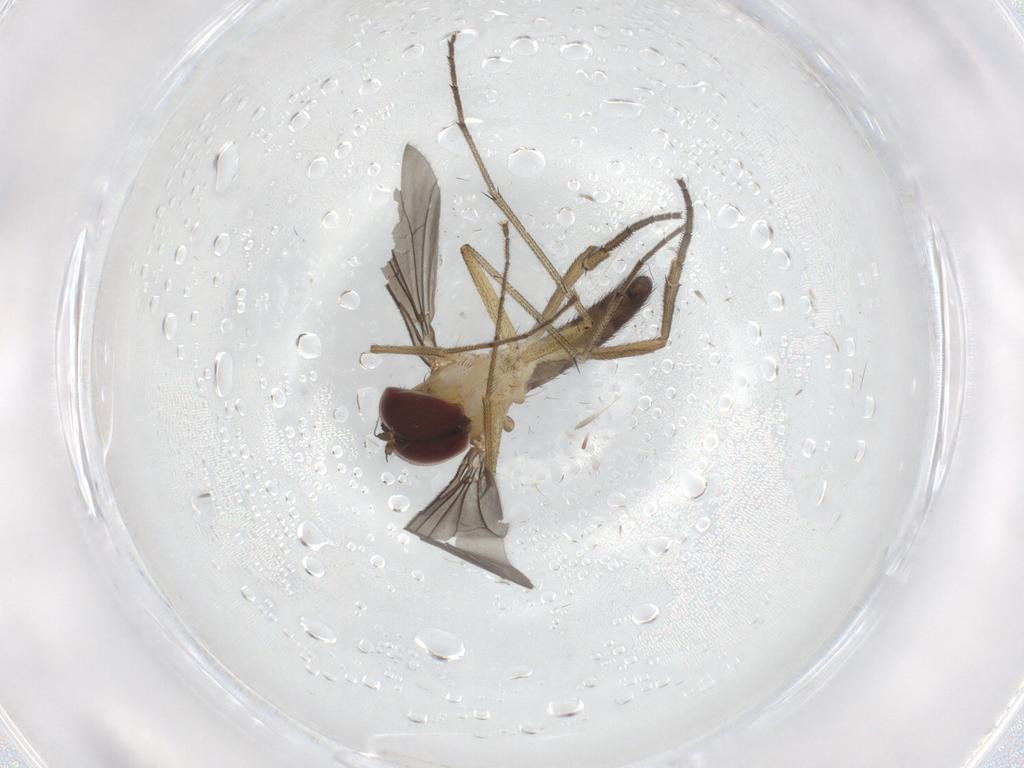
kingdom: Animalia
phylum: Arthropoda
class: Insecta
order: Diptera
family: Dolichopodidae
